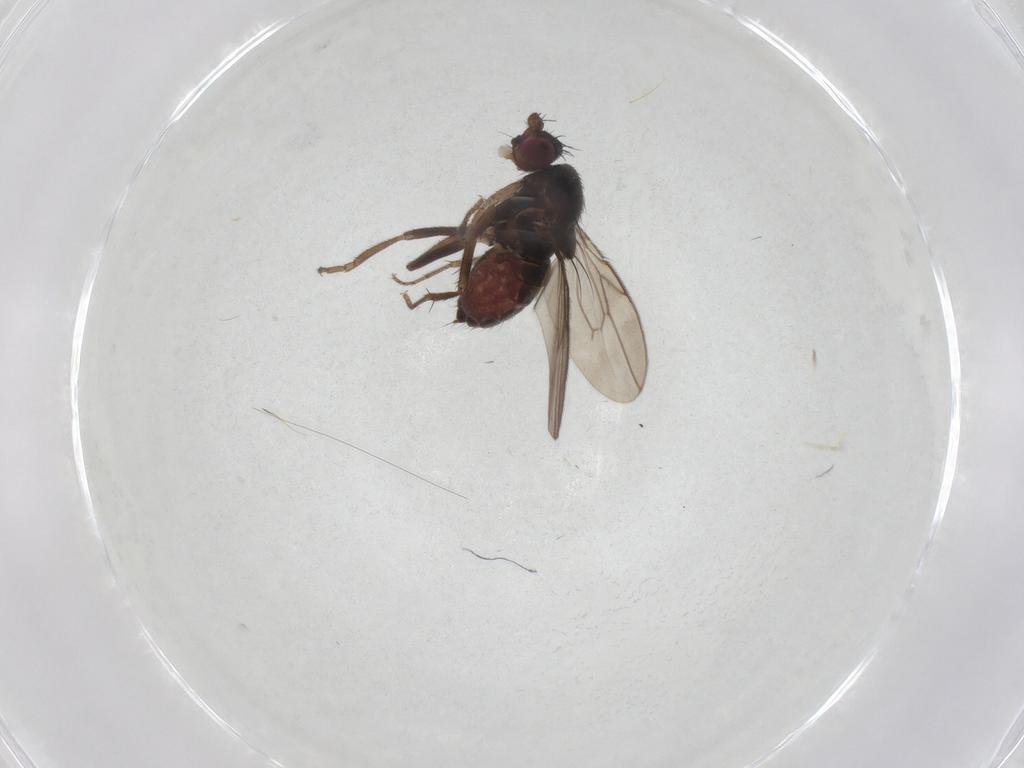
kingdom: Animalia
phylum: Arthropoda
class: Insecta
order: Diptera
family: Sphaeroceridae
